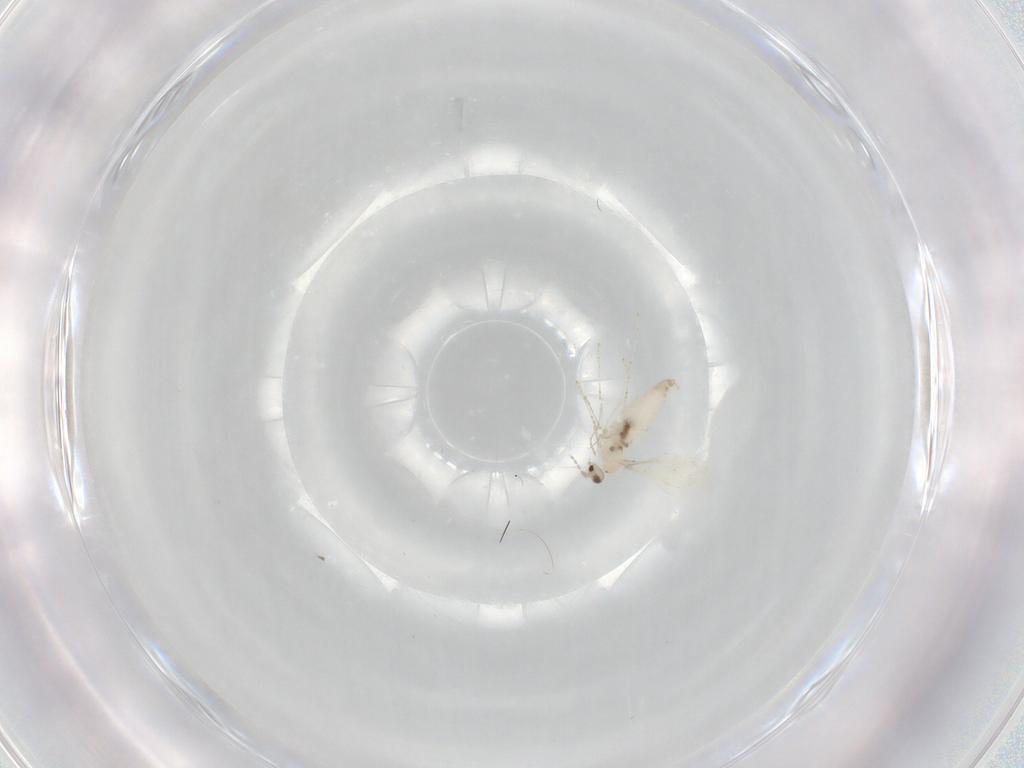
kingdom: Animalia
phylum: Arthropoda
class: Insecta
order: Diptera
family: Cecidomyiidae
